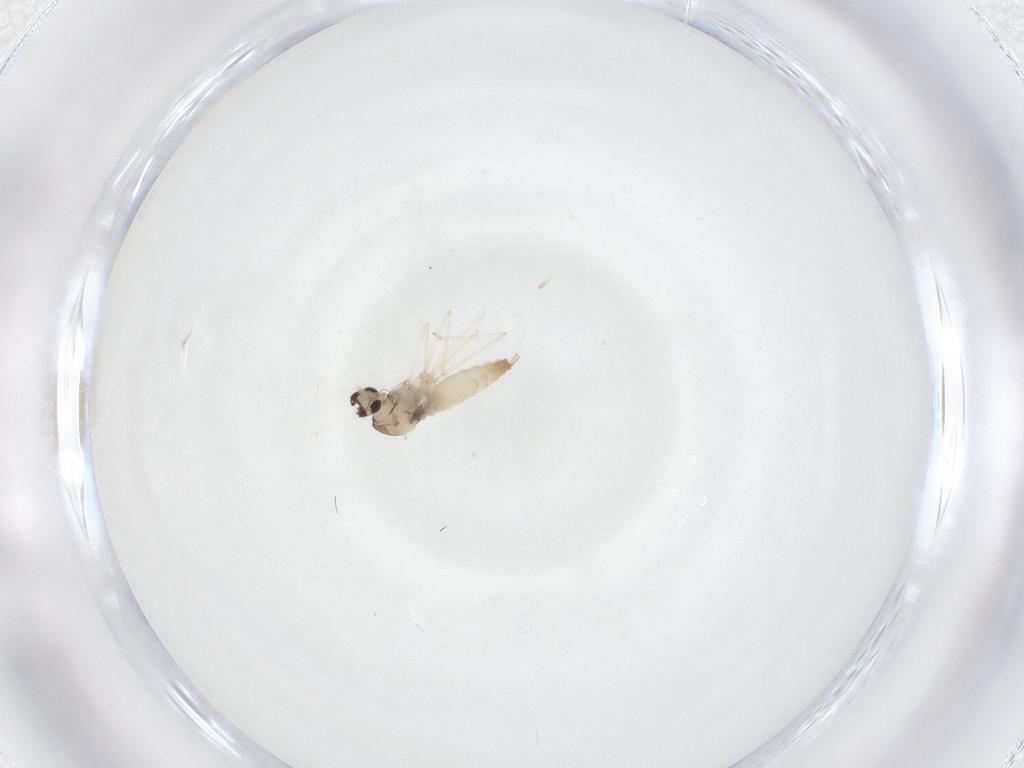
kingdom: Animalia
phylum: Arthropoda
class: Insecta
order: Diptera
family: Cecidomyiidae
